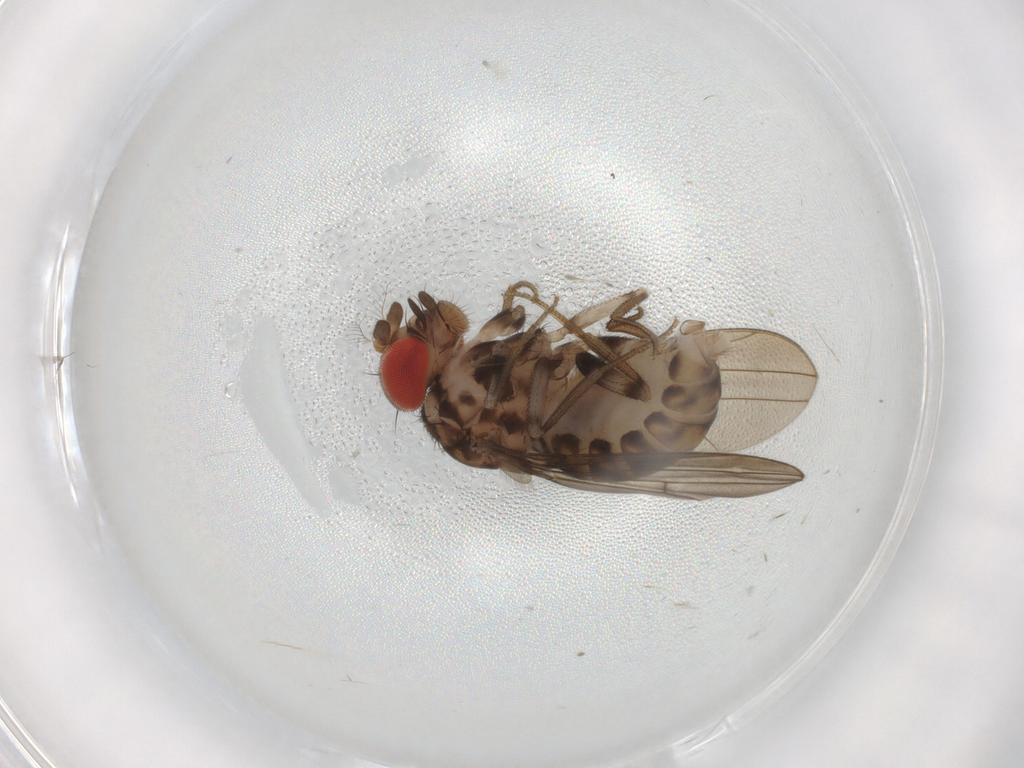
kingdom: Animalia
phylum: Arthropoda
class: Insecta
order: Diptera
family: Drosophilidae
